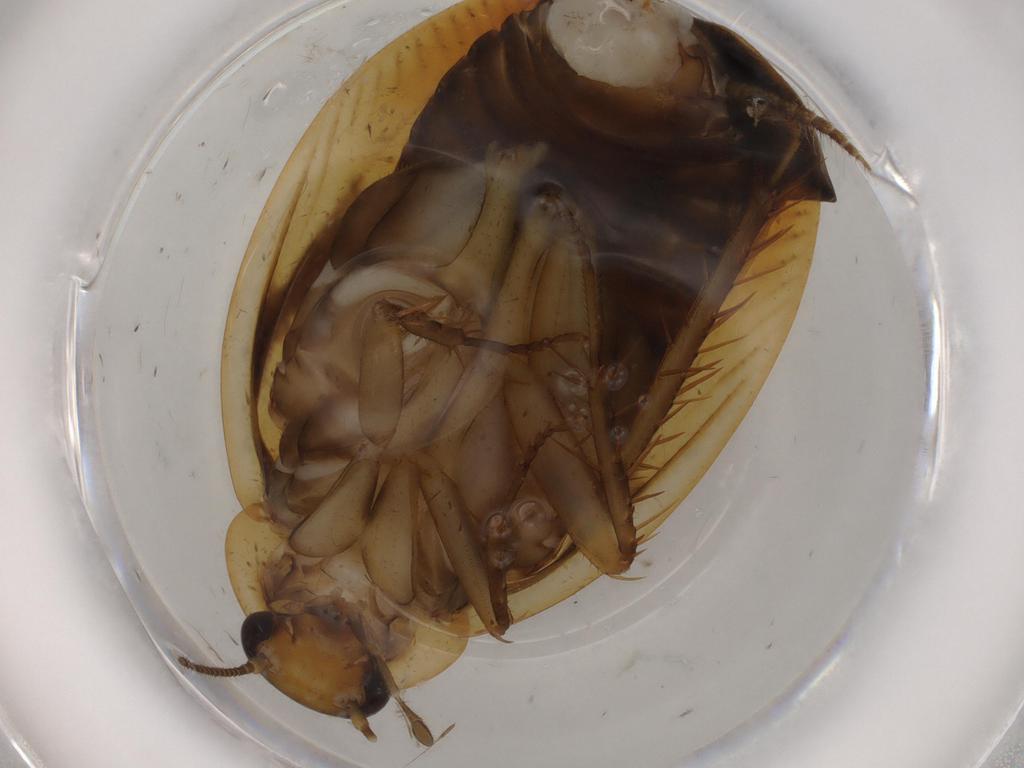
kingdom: Animalia
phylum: Arthropoda
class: Insecta
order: Blattodea
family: Ectobiidae
